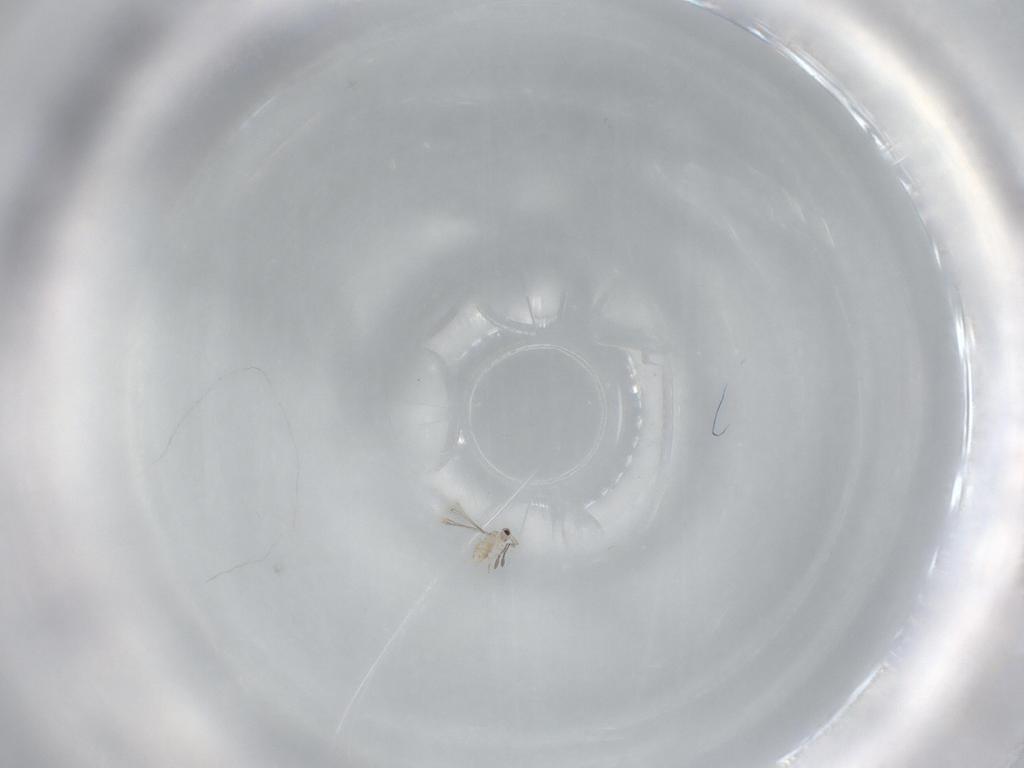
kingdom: Animalia
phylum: Arthropoda
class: Insecta
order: Hymenoptera
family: Mymaridae
